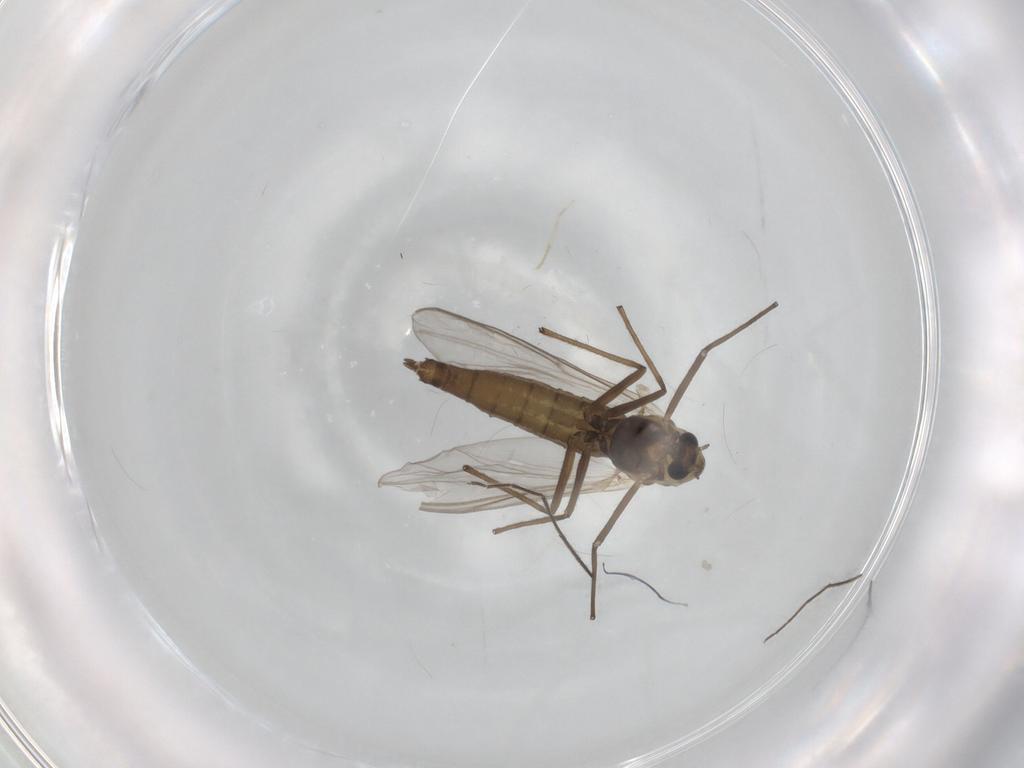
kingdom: Animalia
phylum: Arthropoda
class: Insecta
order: Diptera
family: Chironomidae
